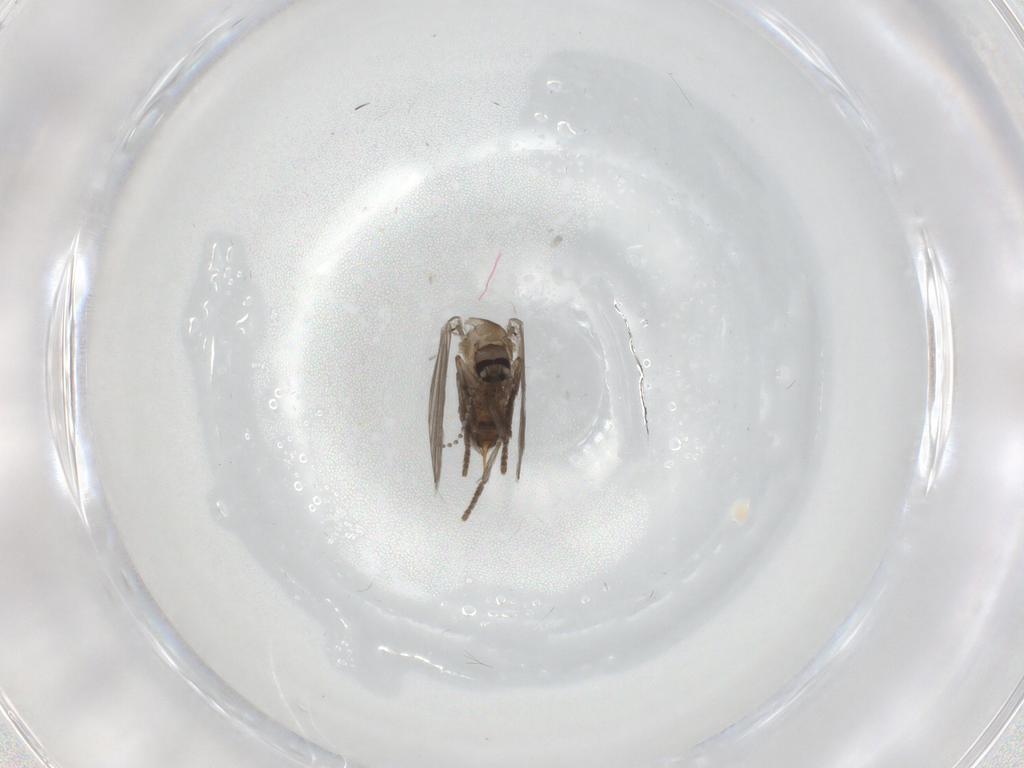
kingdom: Animalia
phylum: Arthropoda
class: Insecta
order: Diptera
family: Psychodidae
